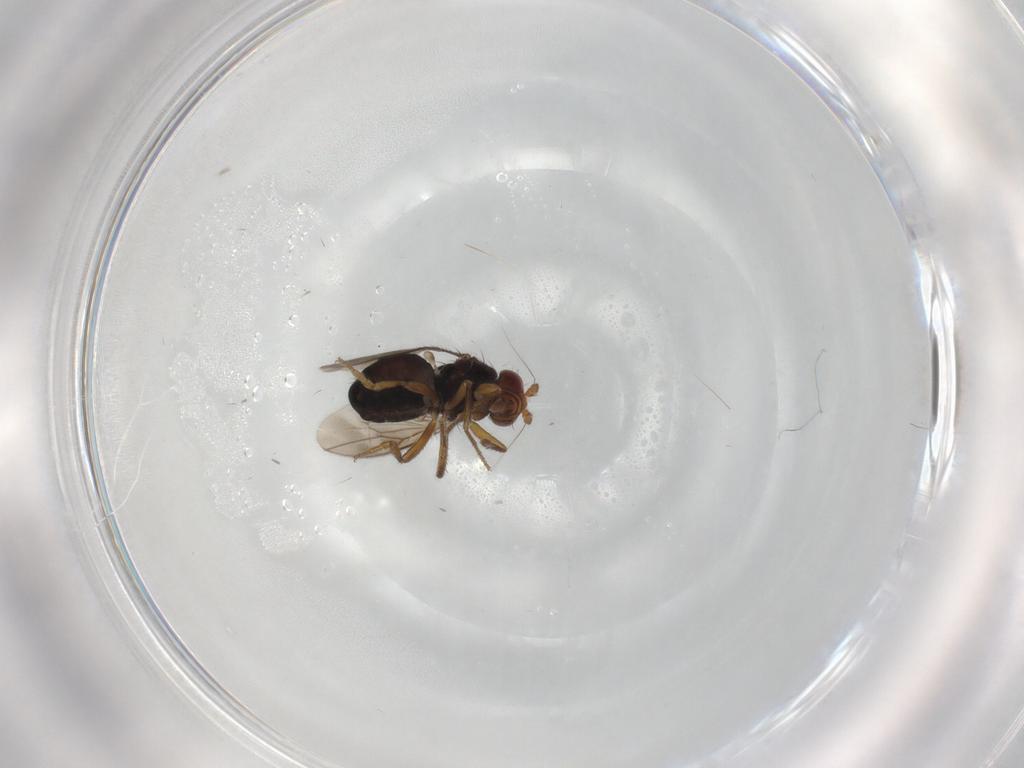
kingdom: Animalia
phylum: Arthropoda
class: Insecta
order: Diptera
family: Sphaeroceridae
